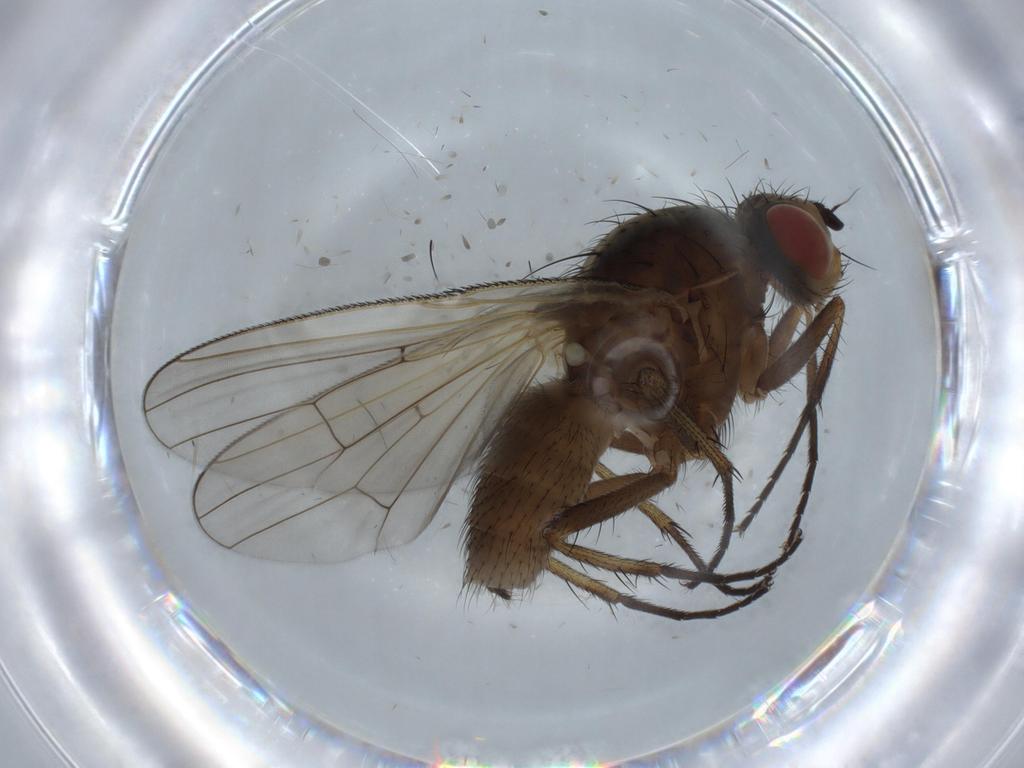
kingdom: Animalia
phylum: Arthropoda
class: Insecta
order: Diptera
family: Anthomyiidae
